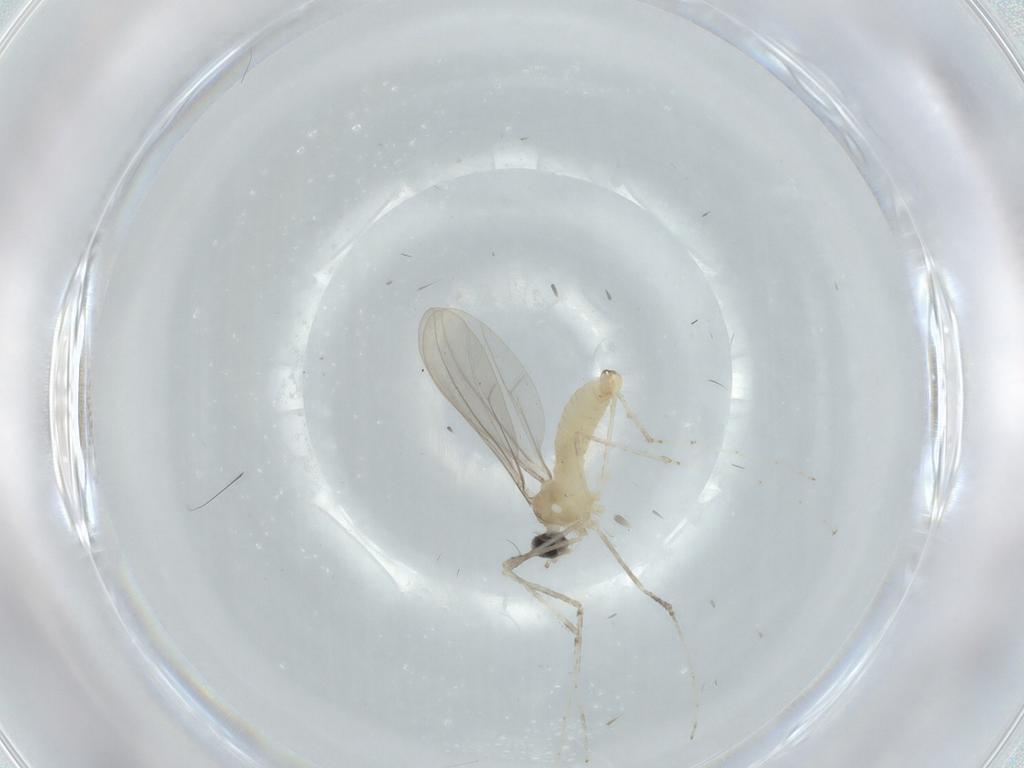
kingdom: Animalia
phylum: Arthropoda
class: Insecta
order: Diptera
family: Cecidomyiidae
